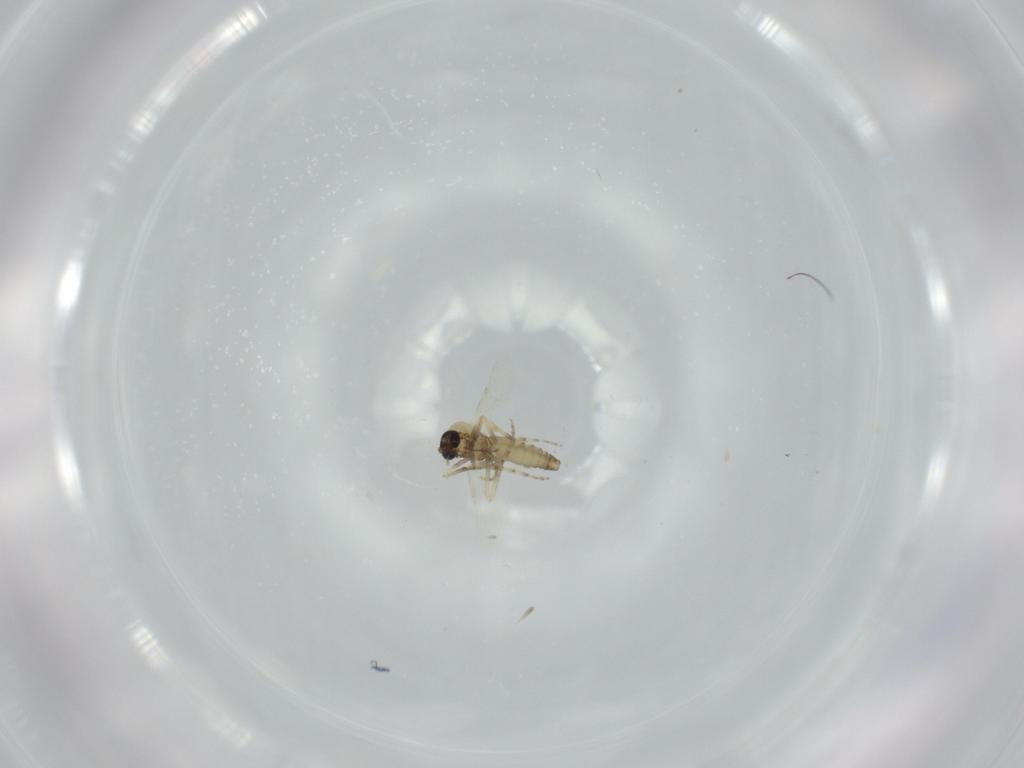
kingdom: Animalia
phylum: Arthropoda
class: Insecta
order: Diptera
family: Ceratopogonidae
